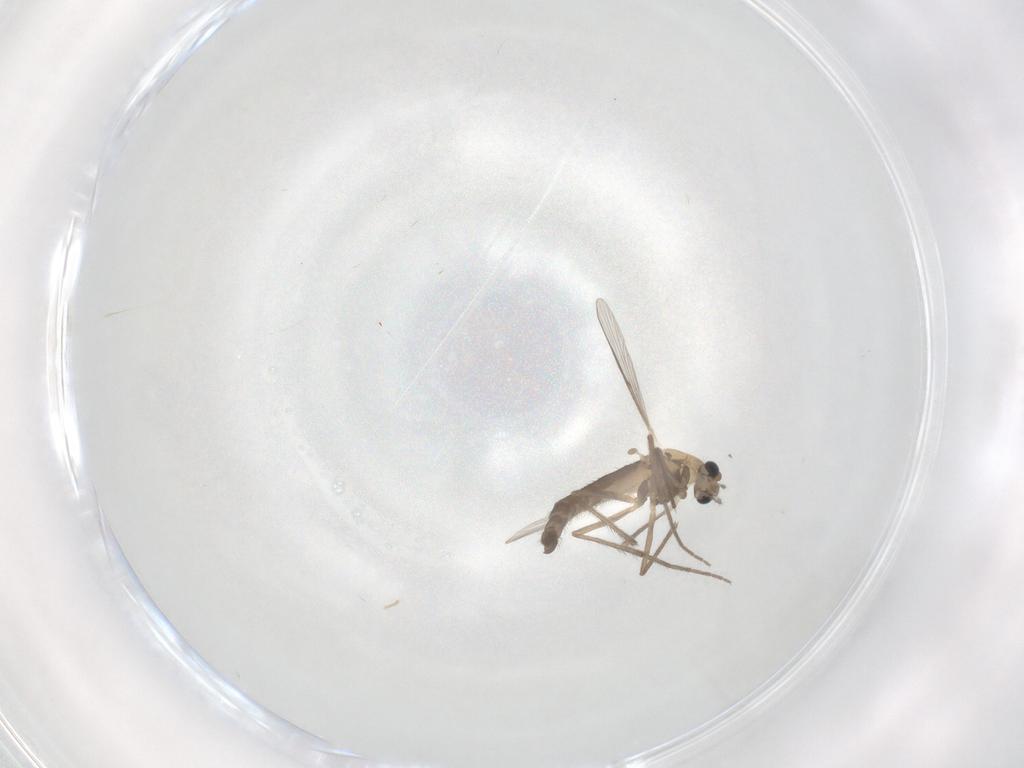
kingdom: Animalia
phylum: Arthropoda
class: Insecta
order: Diptera
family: Chironomidae
